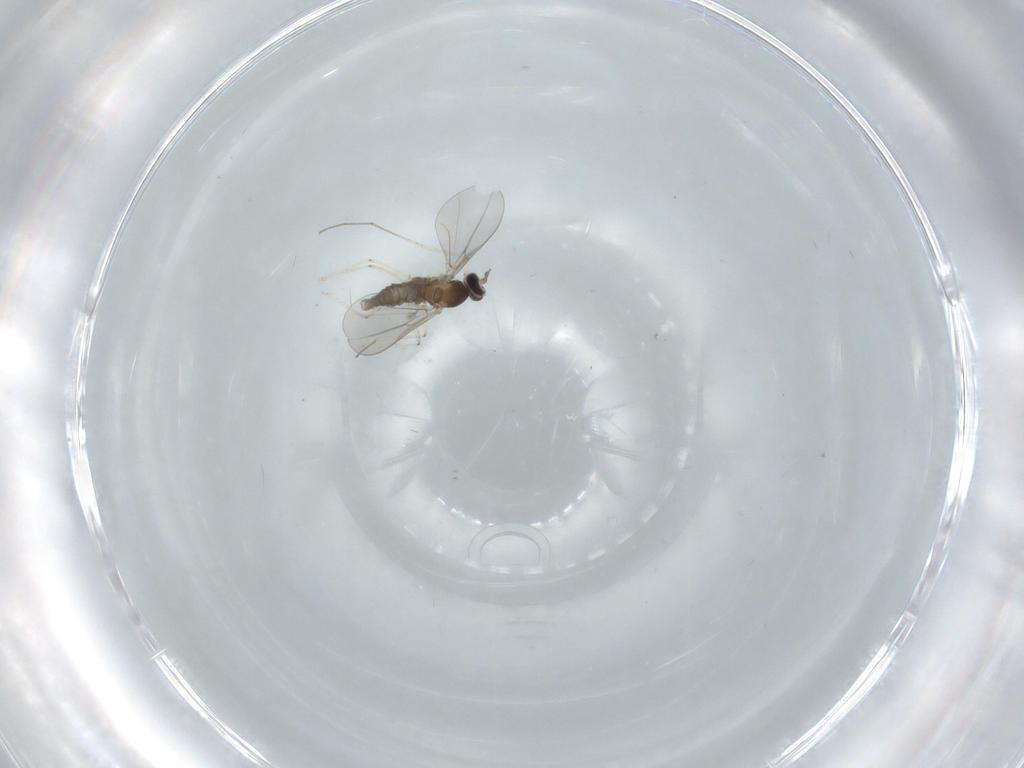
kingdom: Animalia
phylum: Arthropoda
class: Insecta
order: Diptera
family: Cecidomyiidae
